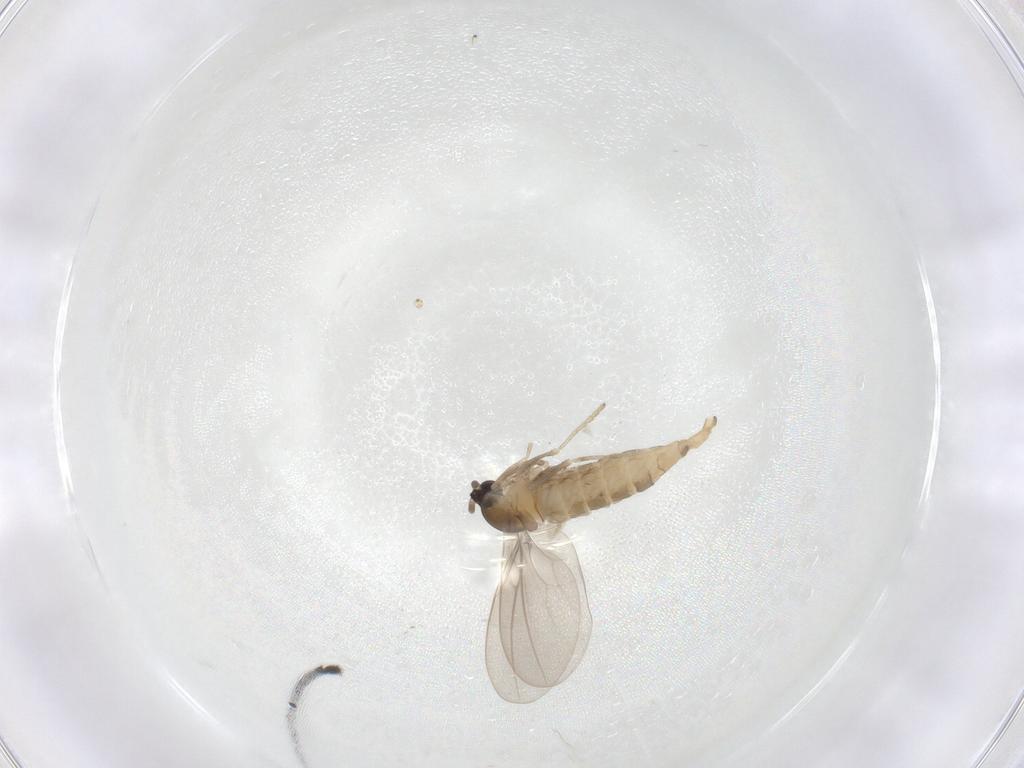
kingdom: Animalia
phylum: Arthropoda
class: Insecta
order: Diptera
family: Cecidomyiidae
